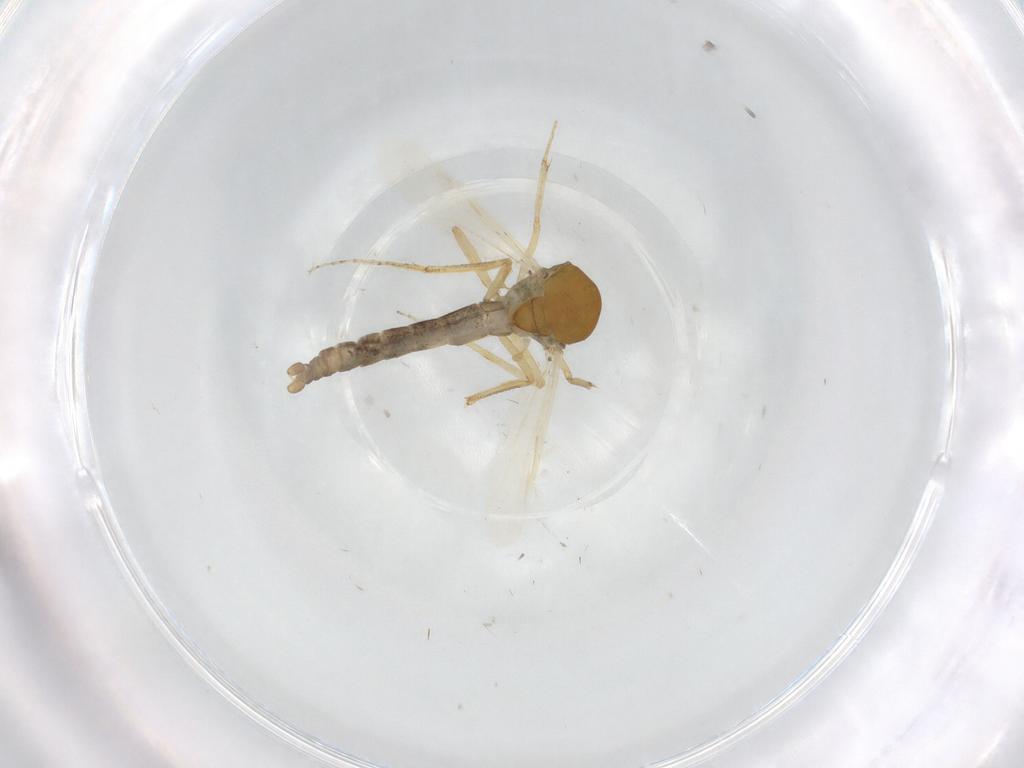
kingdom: Animalia
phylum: Arthropoda
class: Insecta
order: Diptera
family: Ceratopogonidae
